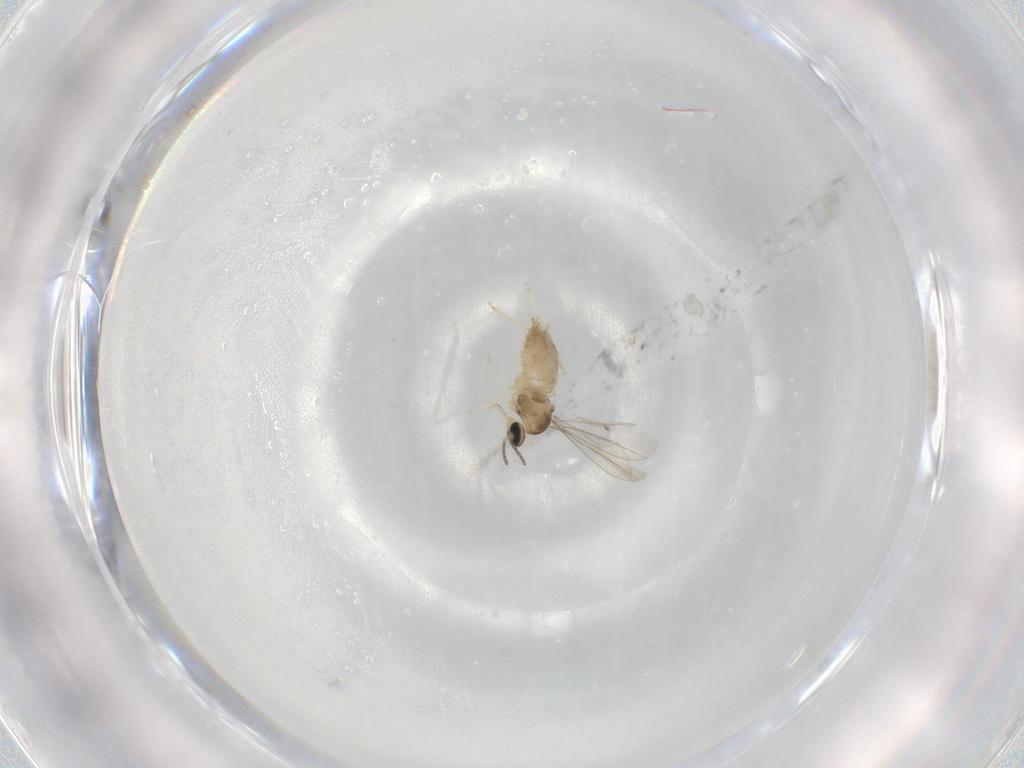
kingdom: Animalia
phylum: Arthropoda
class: Insecta
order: Diptera
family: Cecidomyiidae
